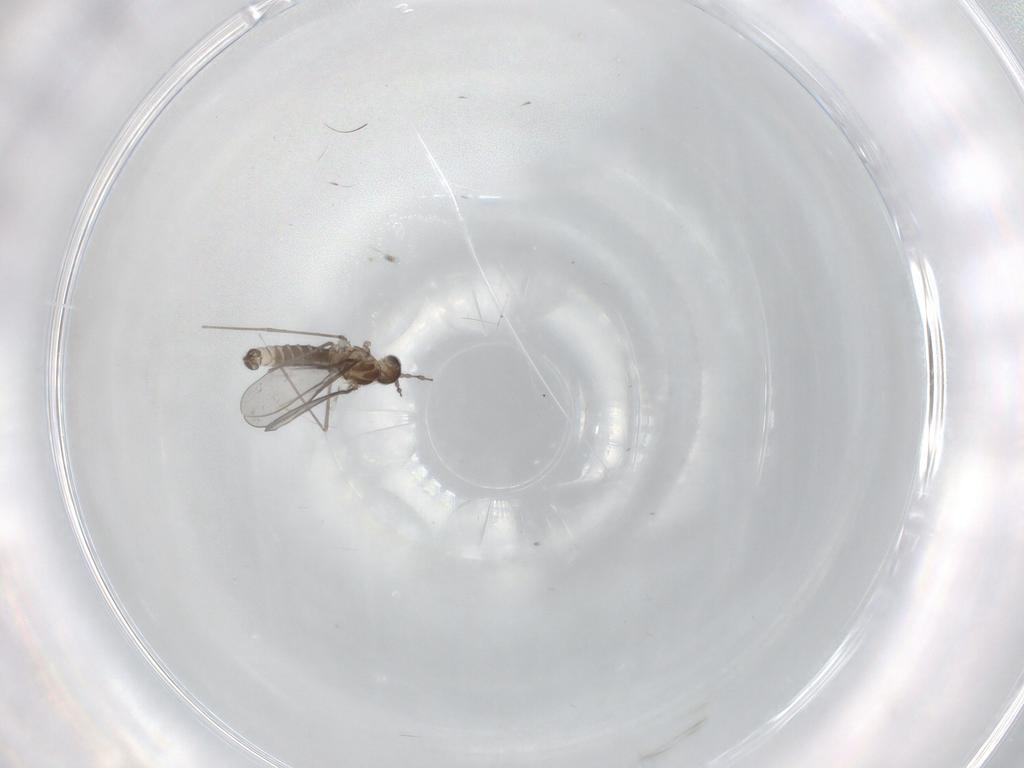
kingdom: Animalia
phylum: Arthropoda
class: Insecta
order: Diptera
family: Cecidomyiidae
